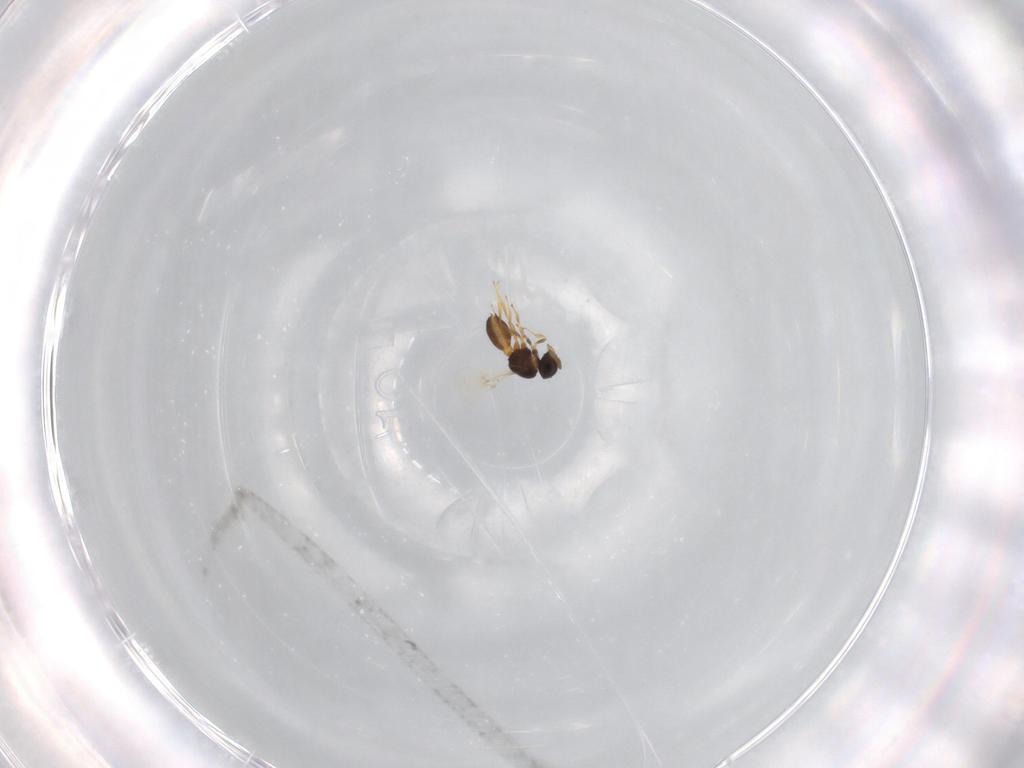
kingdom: Animalia
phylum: Arthropoda
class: Insecta
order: Hymenoptera
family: Scelionidae
